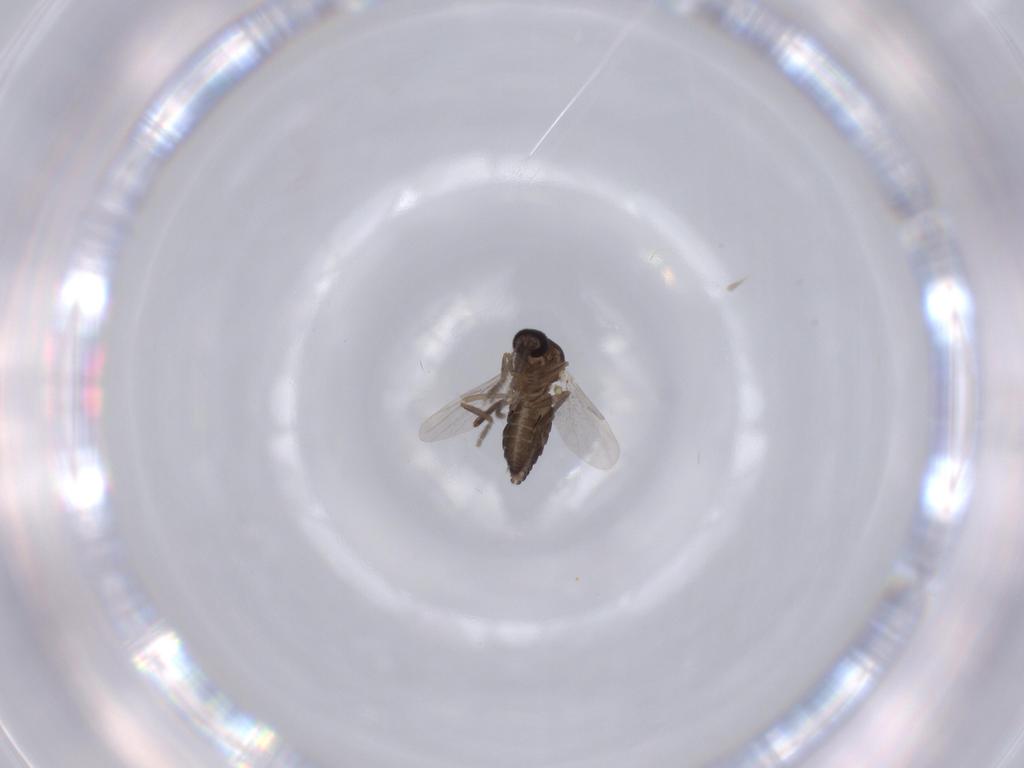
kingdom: Animalia
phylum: Arthropoda
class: Insecta
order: Diptera
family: Ceratopogonidae
